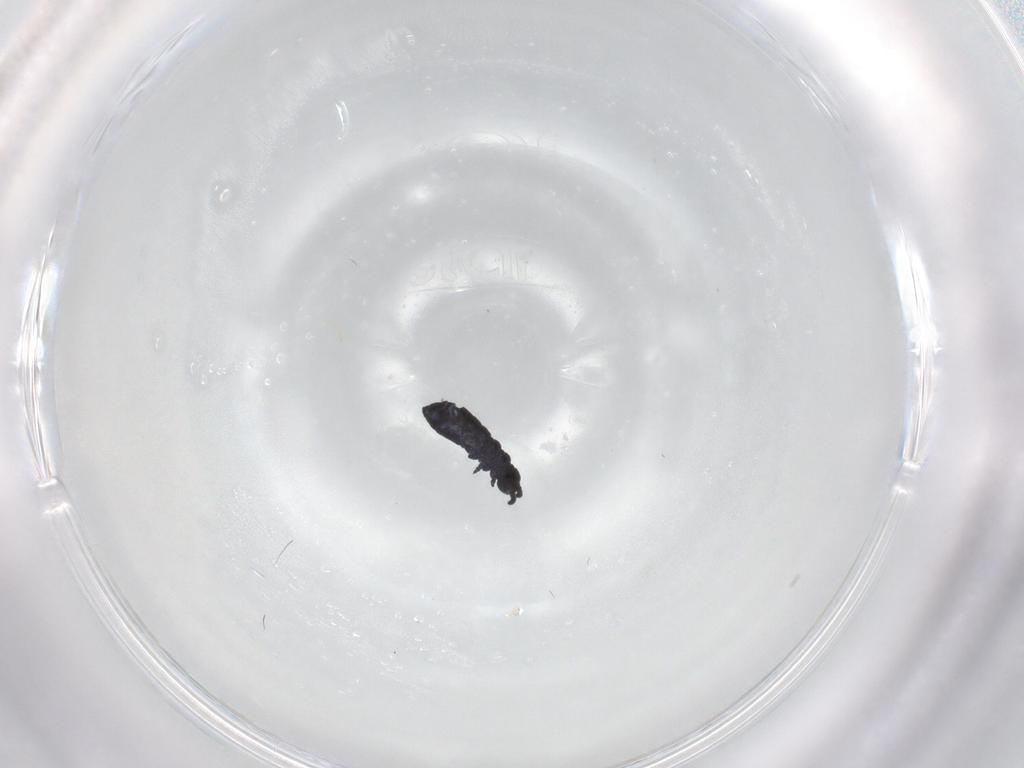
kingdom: Animalia
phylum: Arthropoda
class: Collembola
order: Poduromorpha
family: Hypogastruridae
